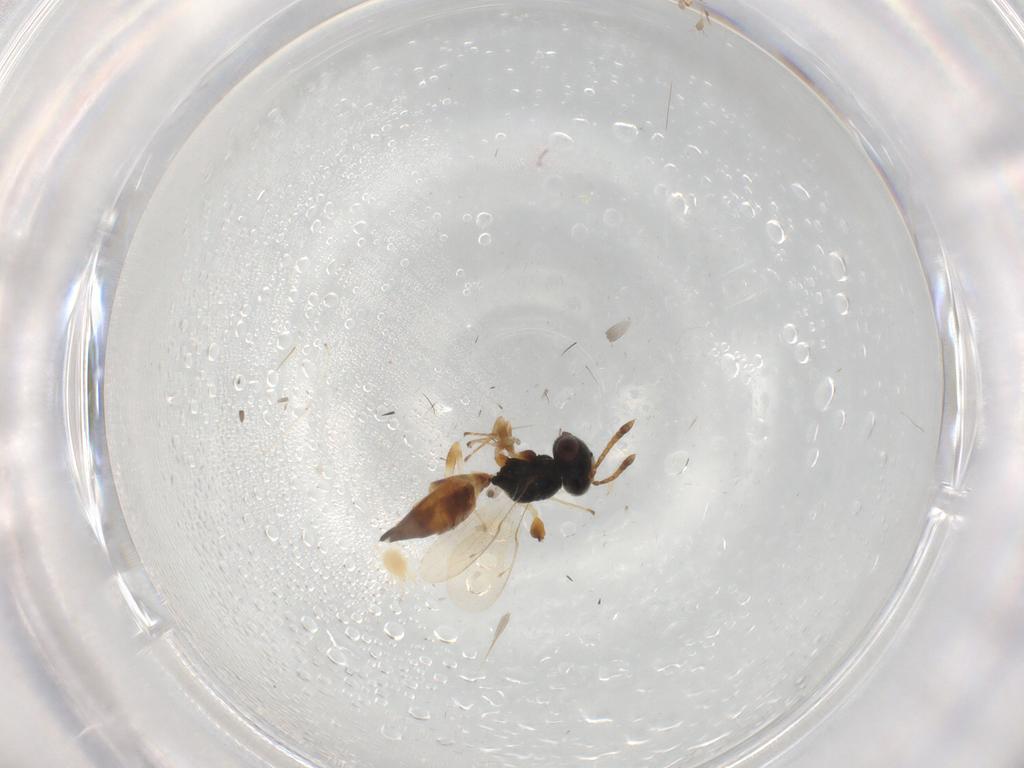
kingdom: Animalia
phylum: Arthropoda
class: Insecta
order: Hymenoptera
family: Pteromalidae
